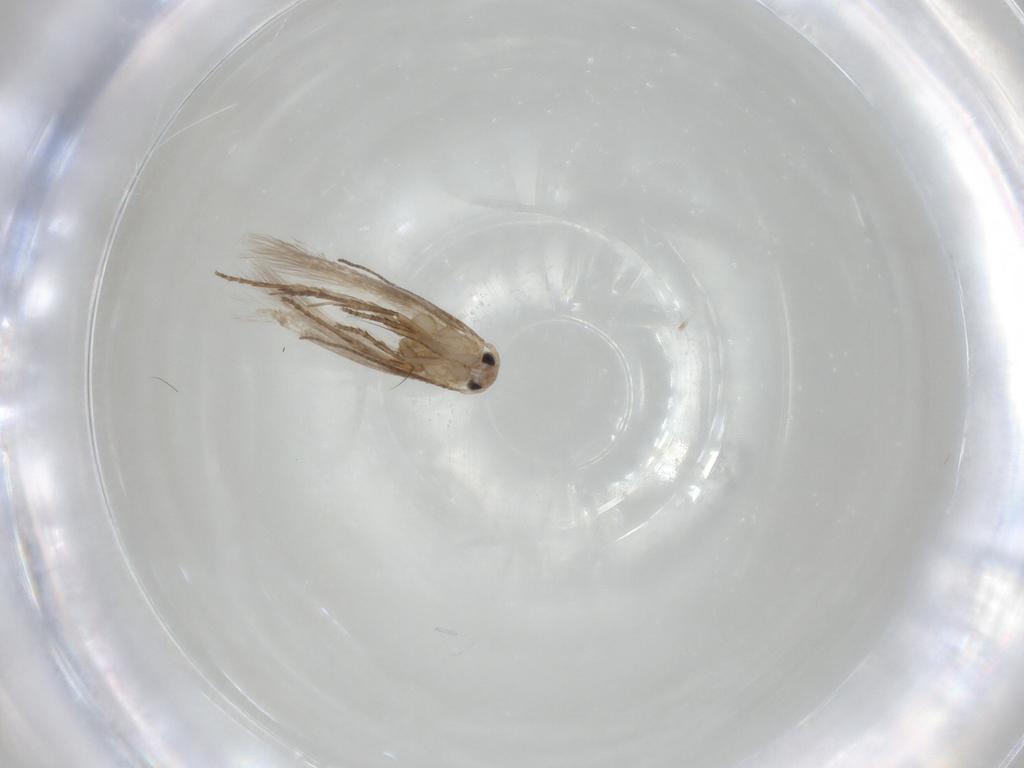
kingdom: Animalia
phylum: Arthropoda
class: Insecta
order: Lepidoptera
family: Bucculatricidae
